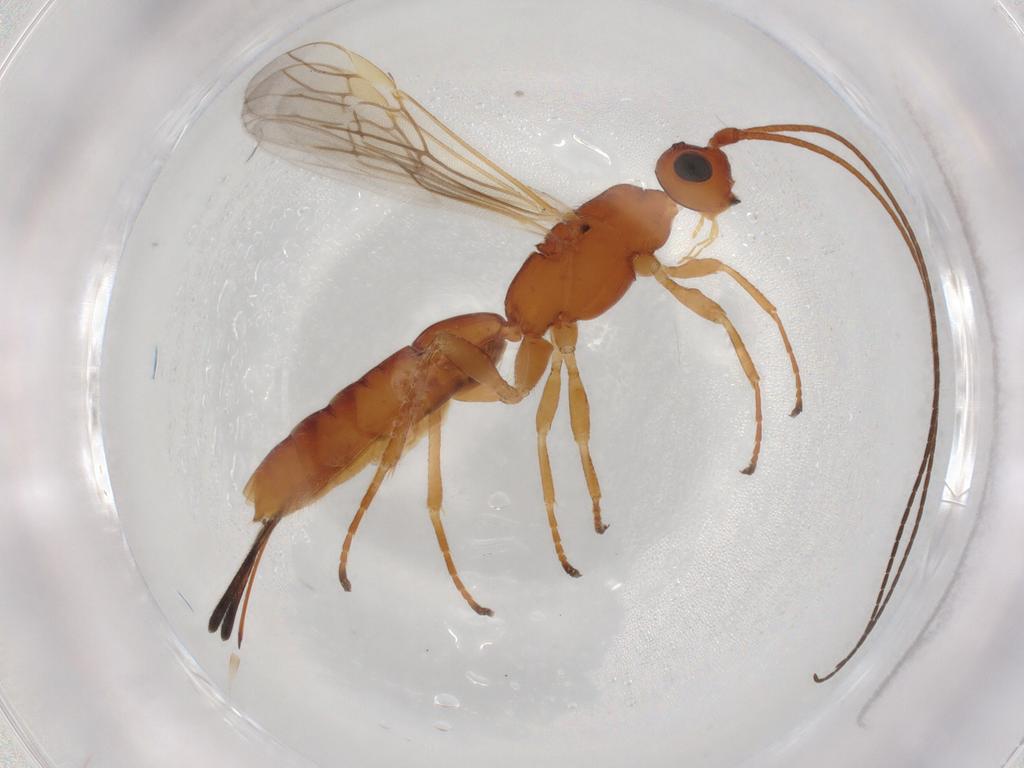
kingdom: Animalia
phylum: Arthropoda
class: Insecta
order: Hymenoptera
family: Braconidae
